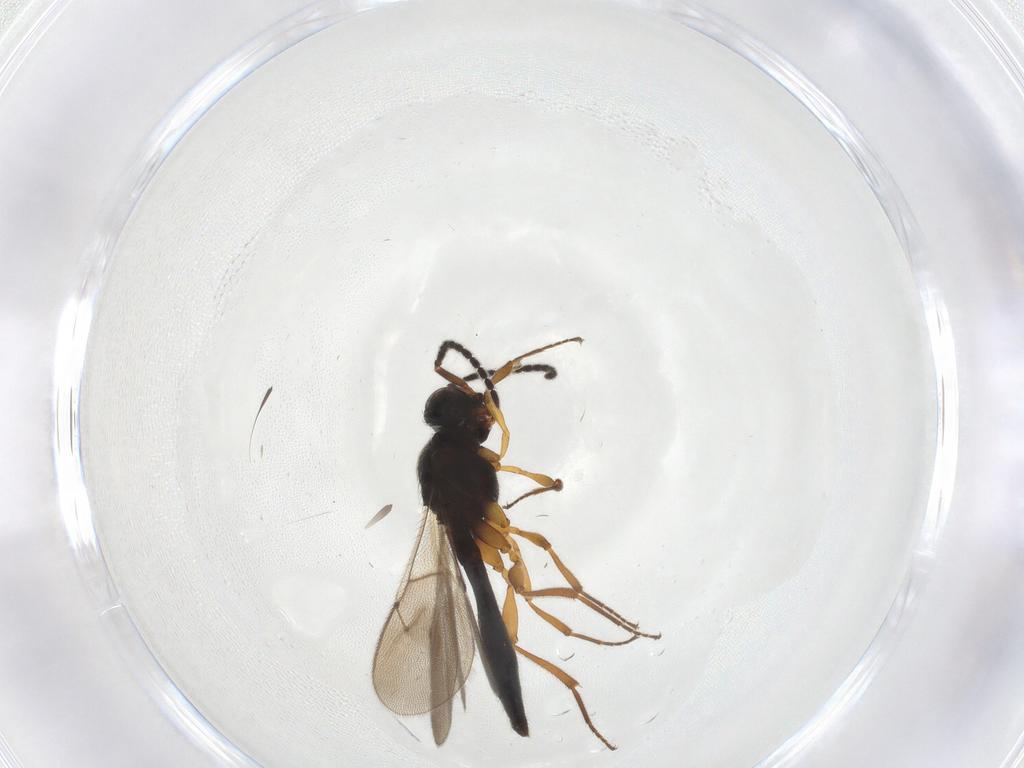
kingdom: Animalia
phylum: Arthropoda
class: Insecta
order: Hymenoptera
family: Scelionidae
